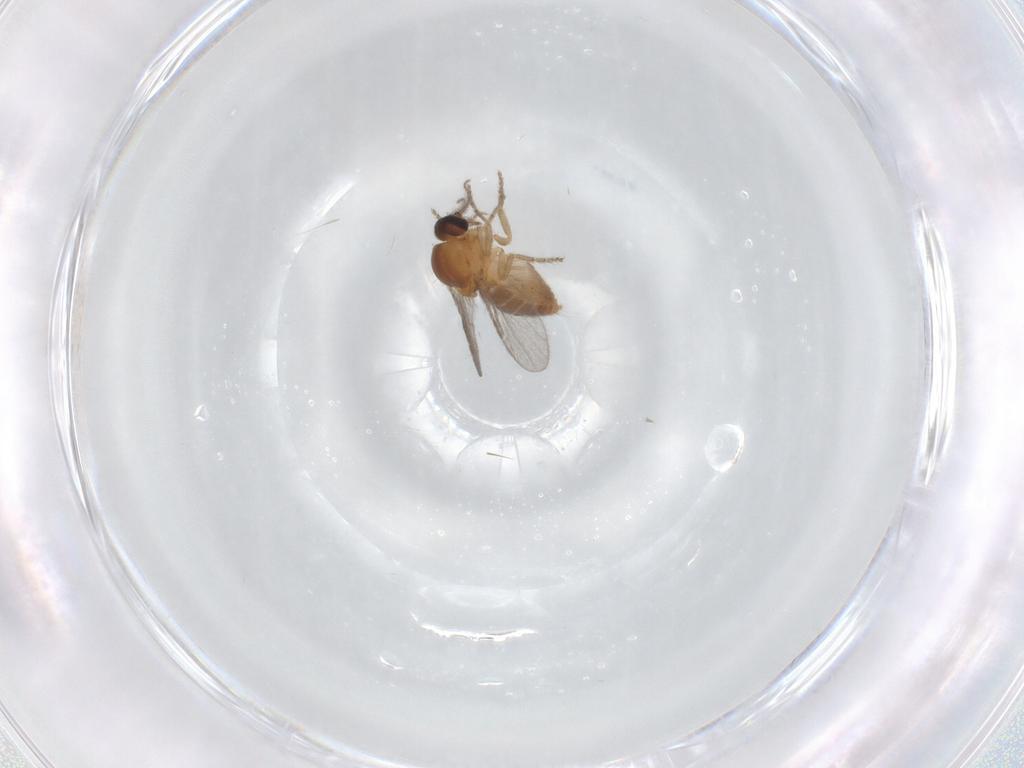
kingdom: Animalia
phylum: Arthropoda
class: Insecta
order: Diptera
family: Ceratopogonidae
